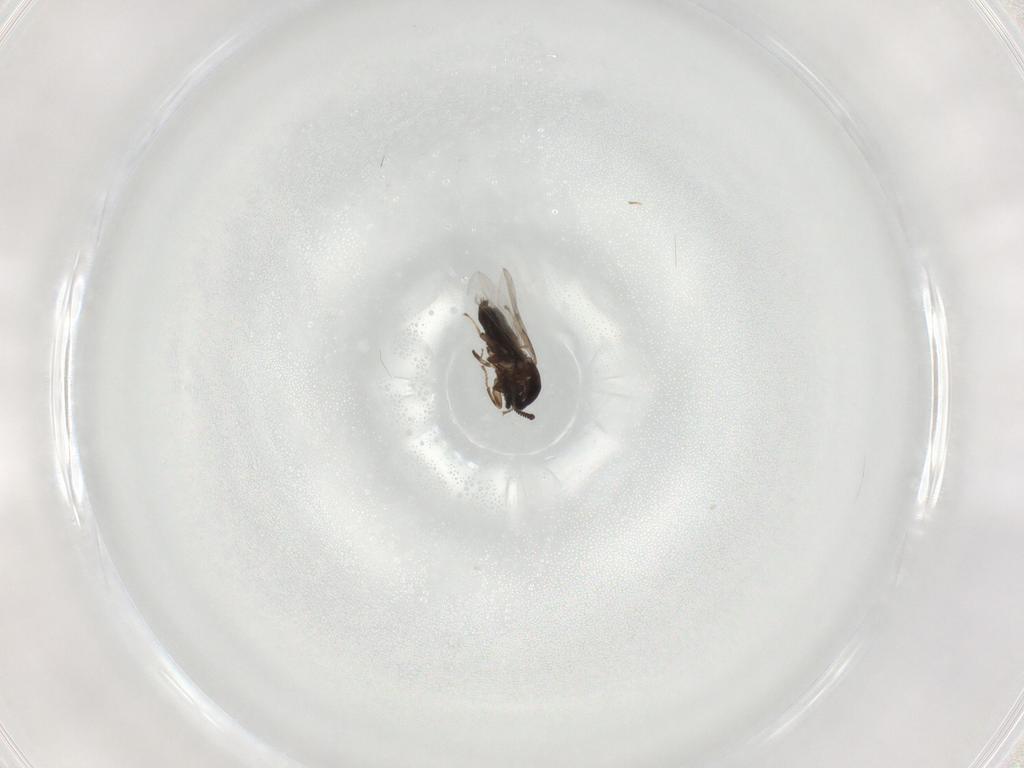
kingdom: Animalia
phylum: Arthropoda
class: Insecta
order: Diptera
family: Scatopsidae
